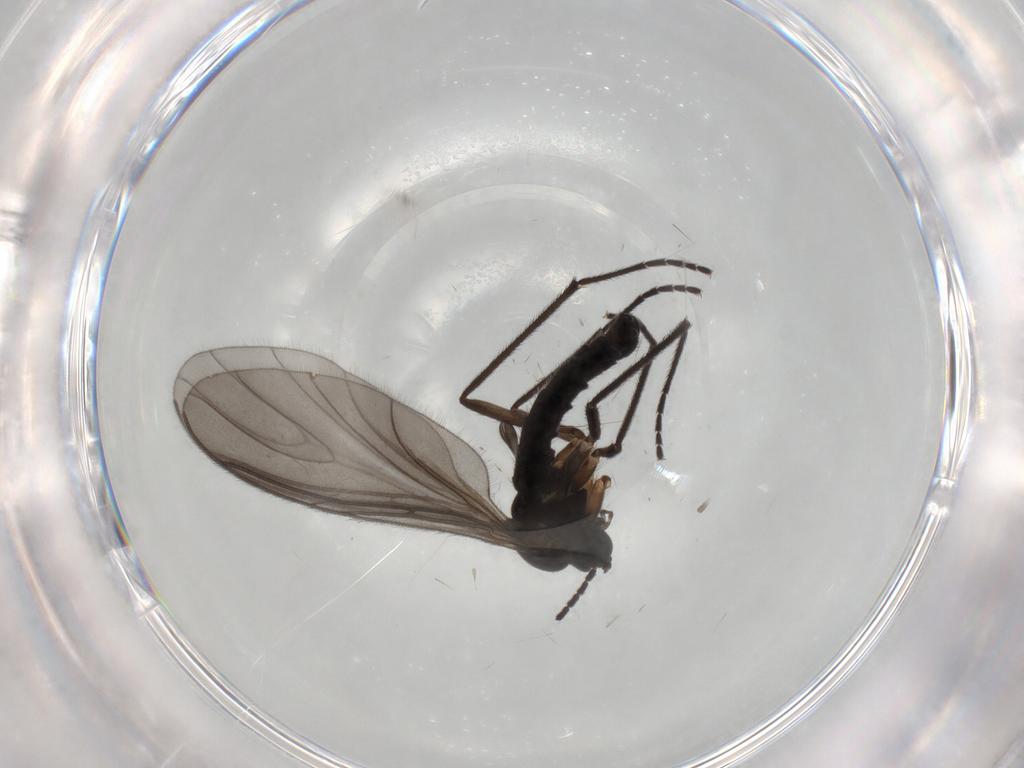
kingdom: Animalia
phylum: Arthropoda
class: Insecta
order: Diptera
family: Sciaridae
